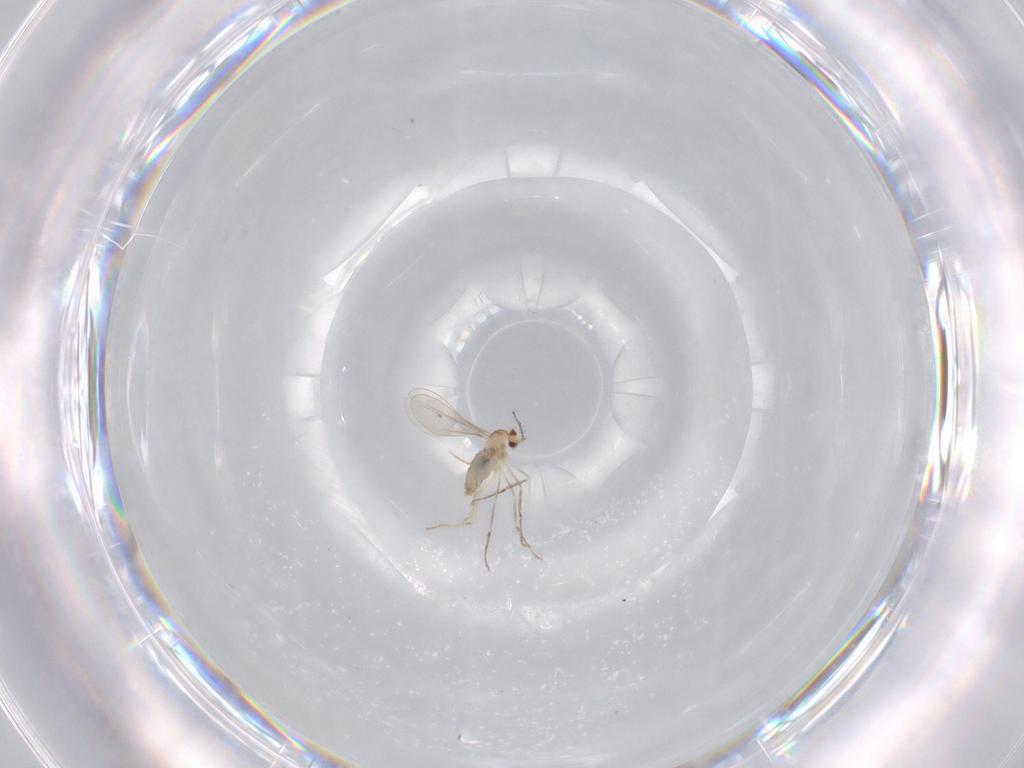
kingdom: Animalia
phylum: Arthropoda
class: Insecta
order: Diptera
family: Cecidomyiidae
